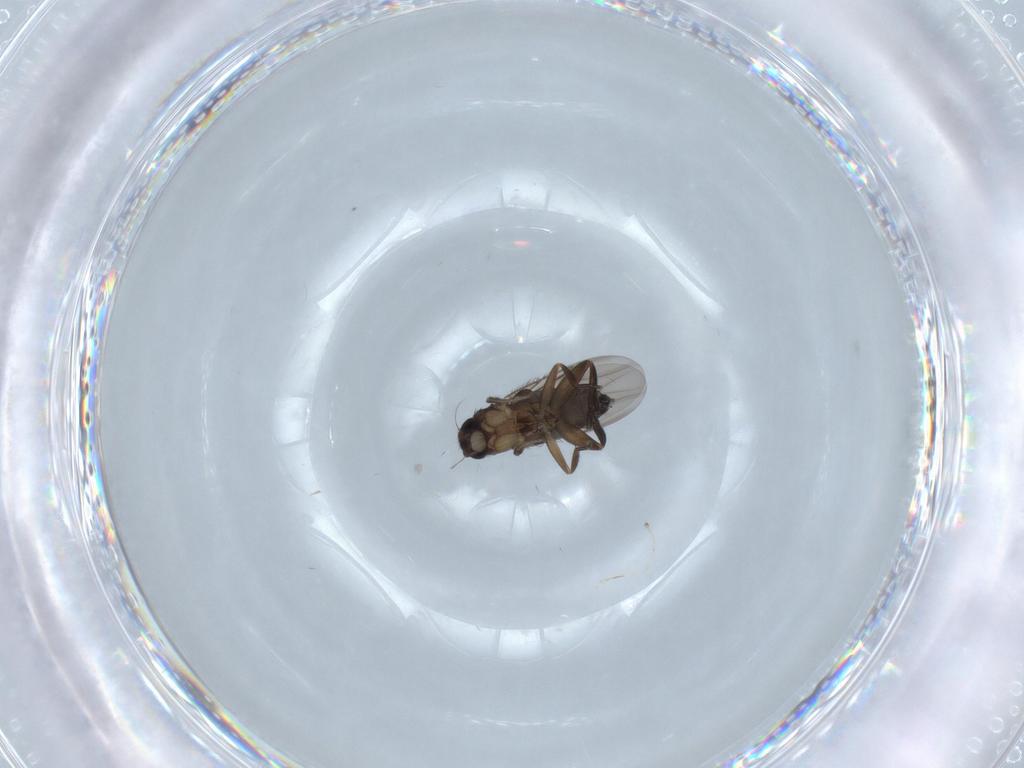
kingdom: Animalia
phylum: Arthropoda
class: Insecta
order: Diptera
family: Phoridae
